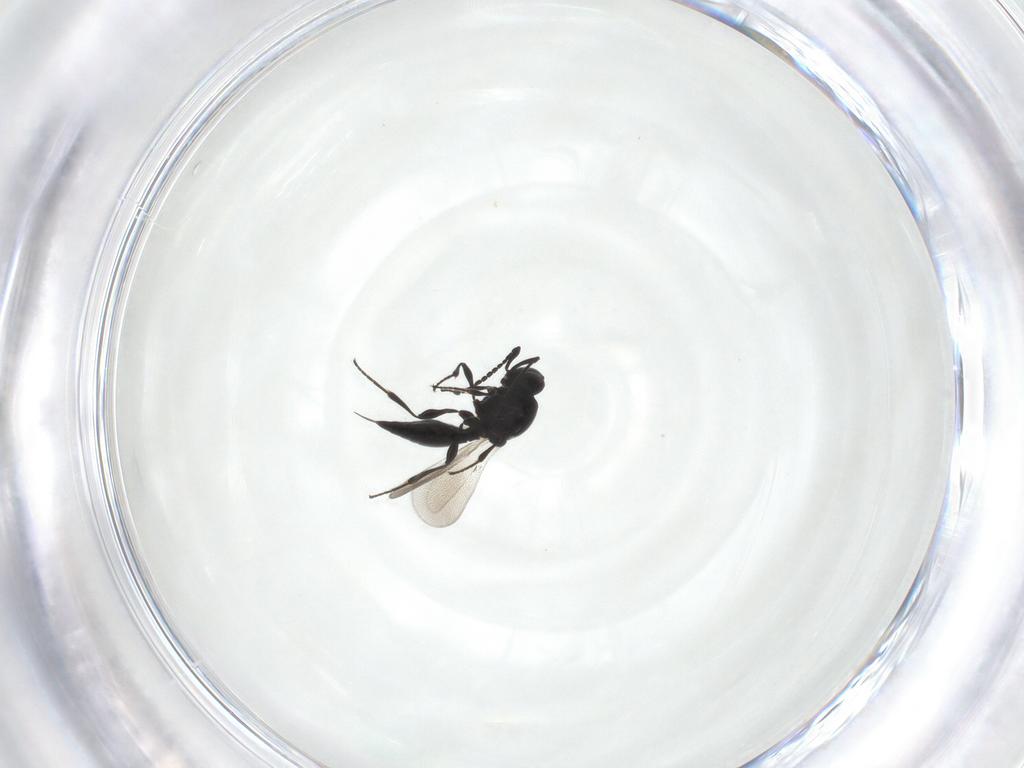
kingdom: Animalia
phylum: Arthropoda
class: Insecta
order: Hymenoptera
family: Platygastridae
